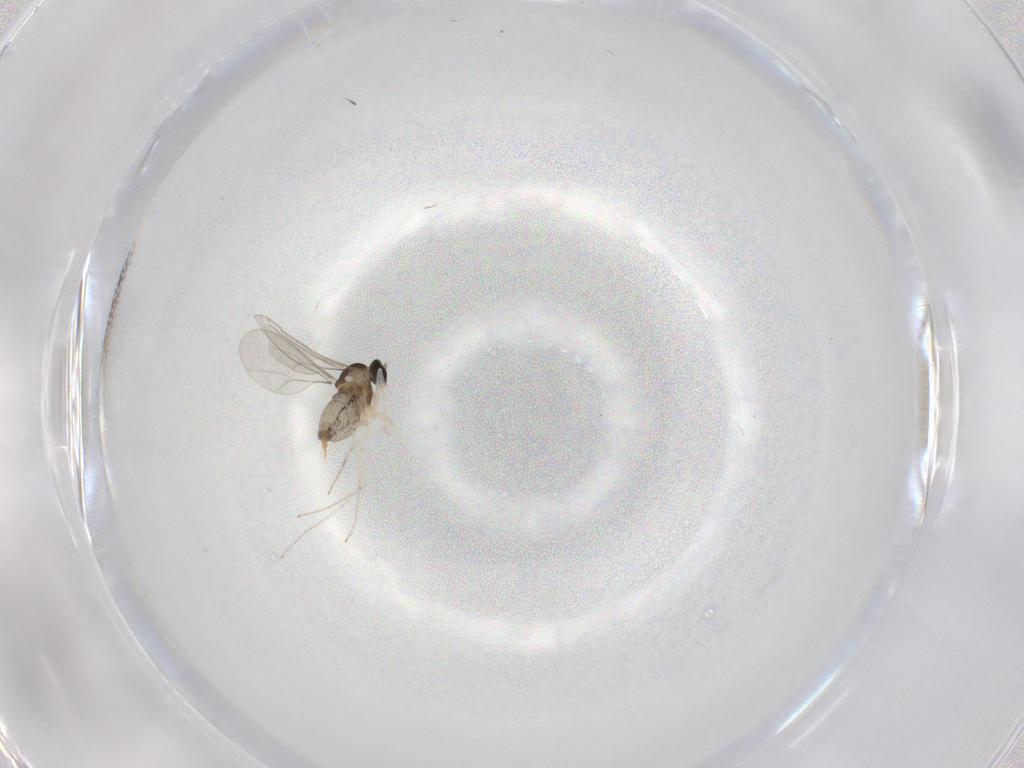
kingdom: Animalia
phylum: Arthropoda
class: Insecta
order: Diptera
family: Cecidomyiidae
